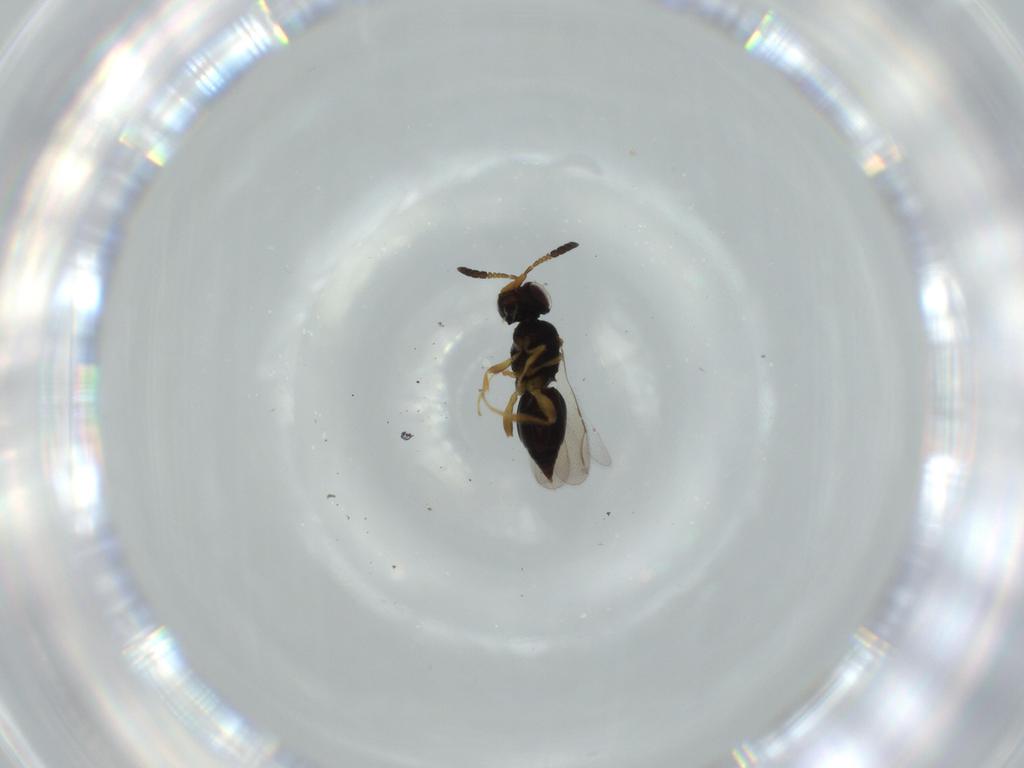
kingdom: Animalia
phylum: Arthropoda
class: Insecta
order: Hymenoptera
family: Ceraphronidae
